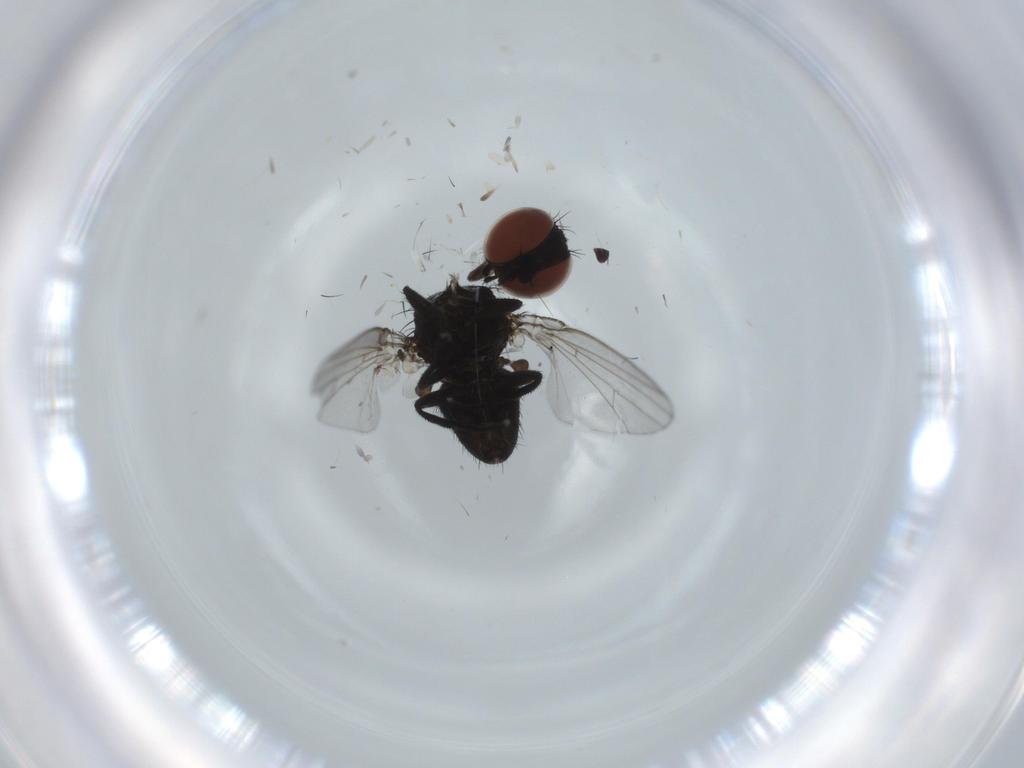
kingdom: Animalia
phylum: Arthropoda
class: Insecta
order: Diptera
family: Milichiidae
